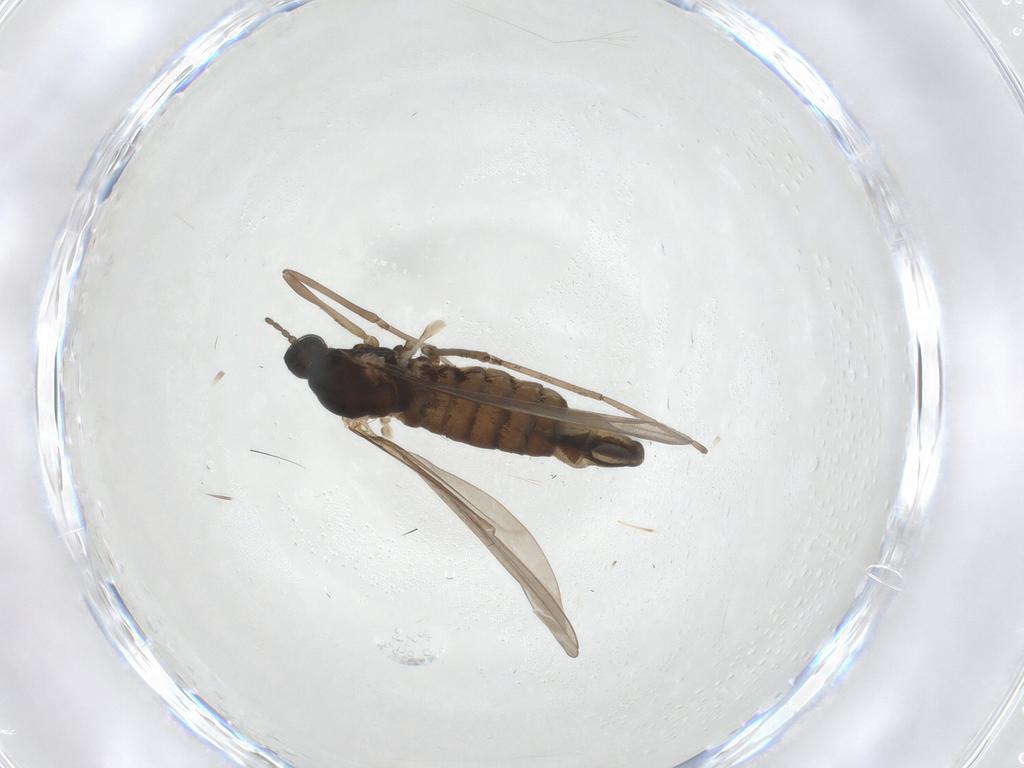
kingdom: Animalia
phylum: Arthropoda
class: Insecta
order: Diptera
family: Cecidomyiidae
